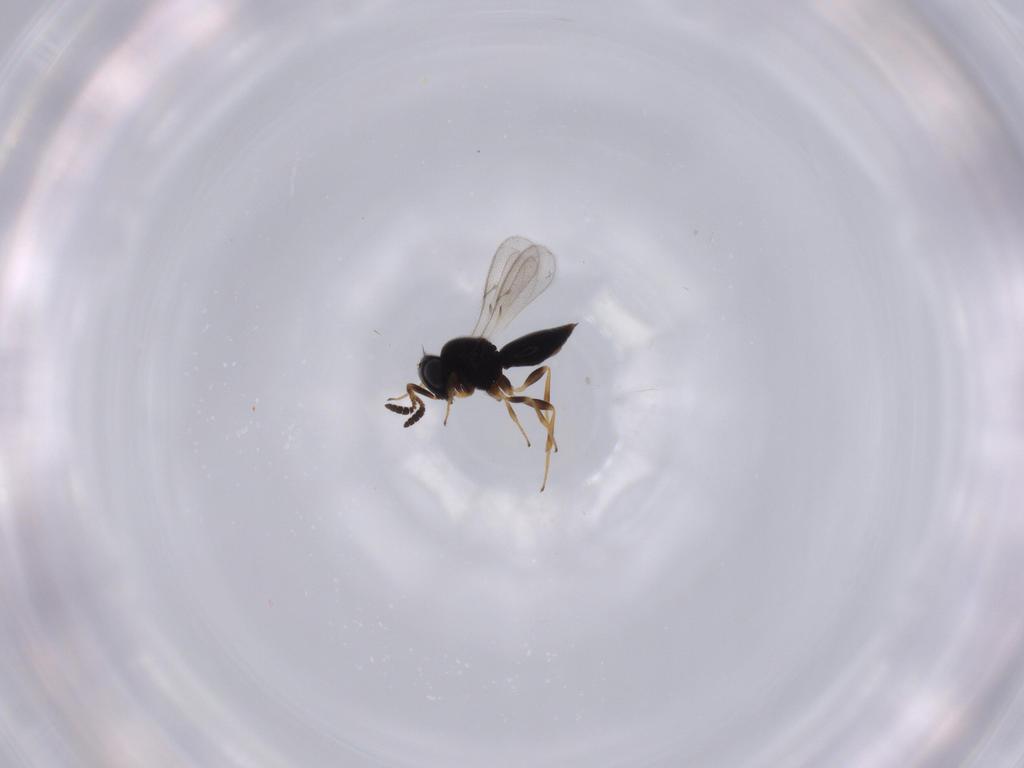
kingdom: Animalia
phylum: Arthropoda
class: Insecta
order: Hymenoptera
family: Scelionidae
